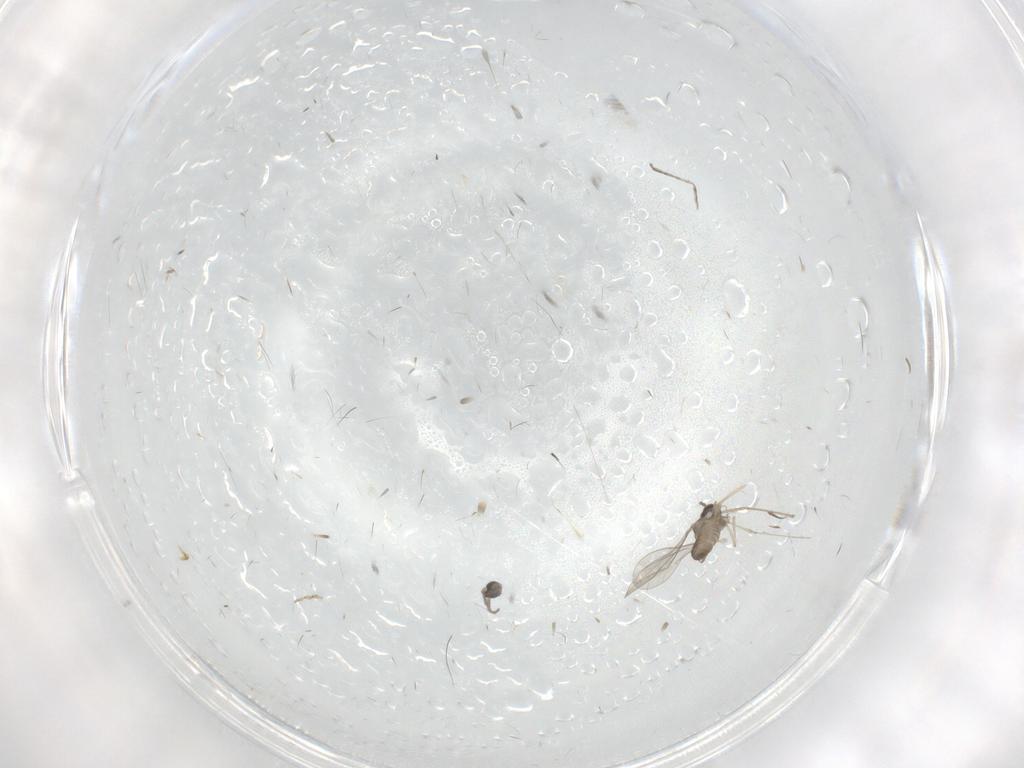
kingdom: Animalia
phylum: Arthropoda
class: Insecta
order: Diptera
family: Cecidomyiidae
